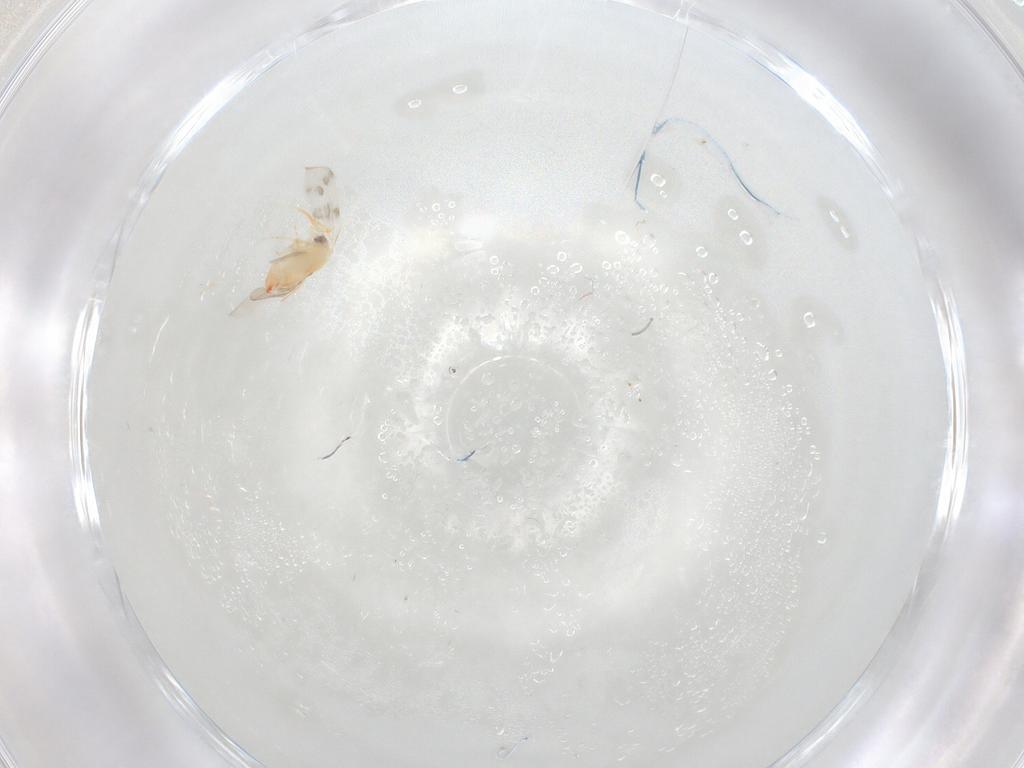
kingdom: Animalia
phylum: Arthropoda
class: Insecta
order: Hemiptera
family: Aleyrodidae
